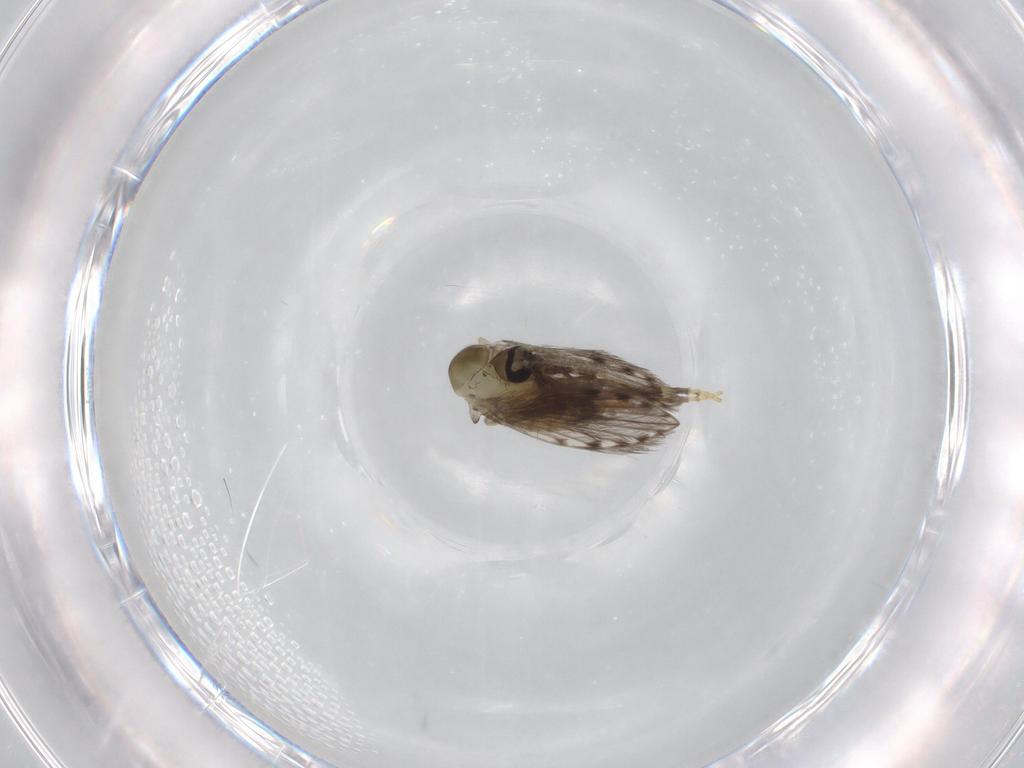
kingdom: Animalia
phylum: Arthropoda
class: Insecta
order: Diptera
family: Psychodidae
